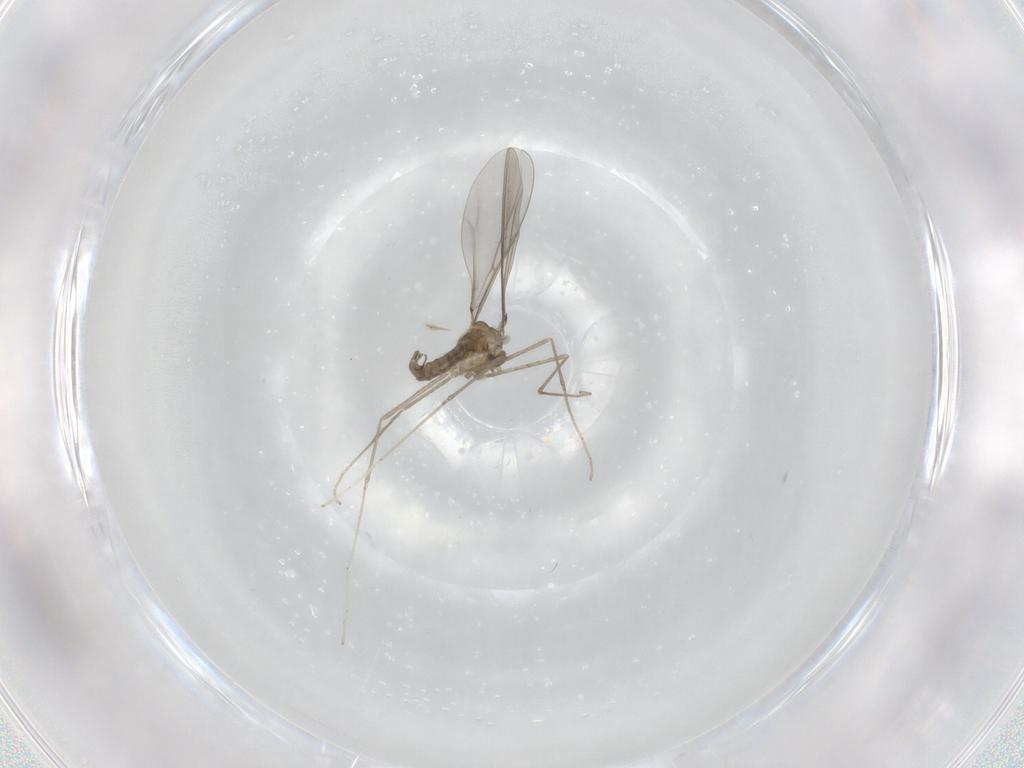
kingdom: Animalia
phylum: Arthropoda
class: Insecta
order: Diptera
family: Cecidomyiidae
